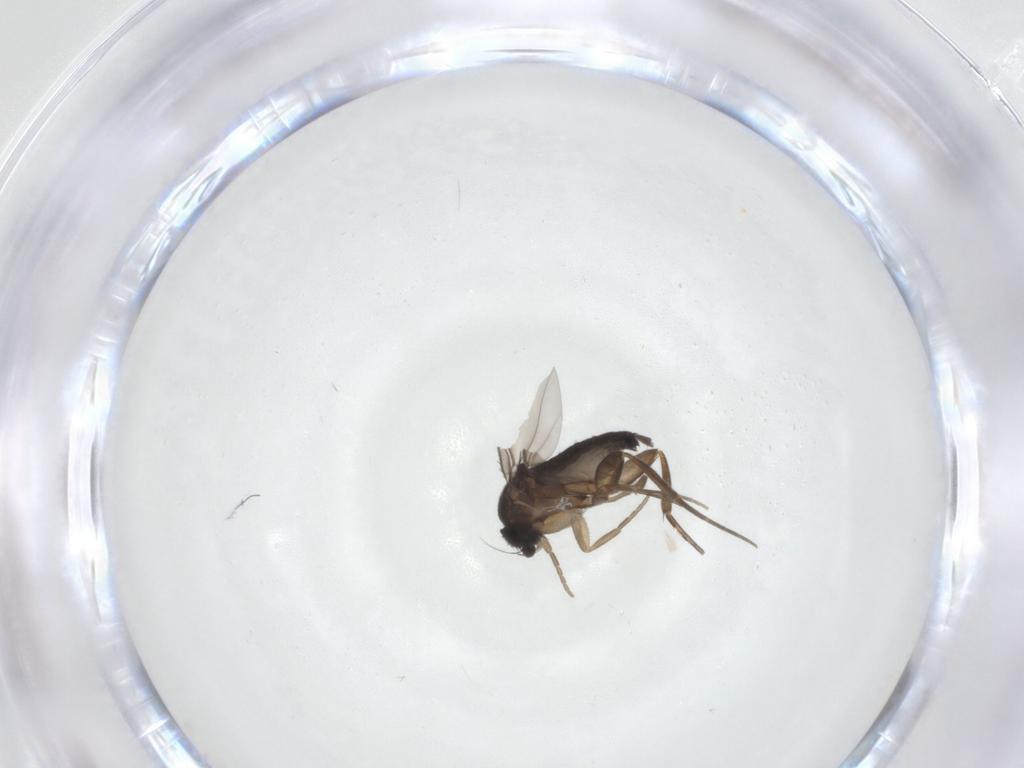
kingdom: Animalia
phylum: Arthropoda
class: Insecta
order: Diptera
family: Phoridae
